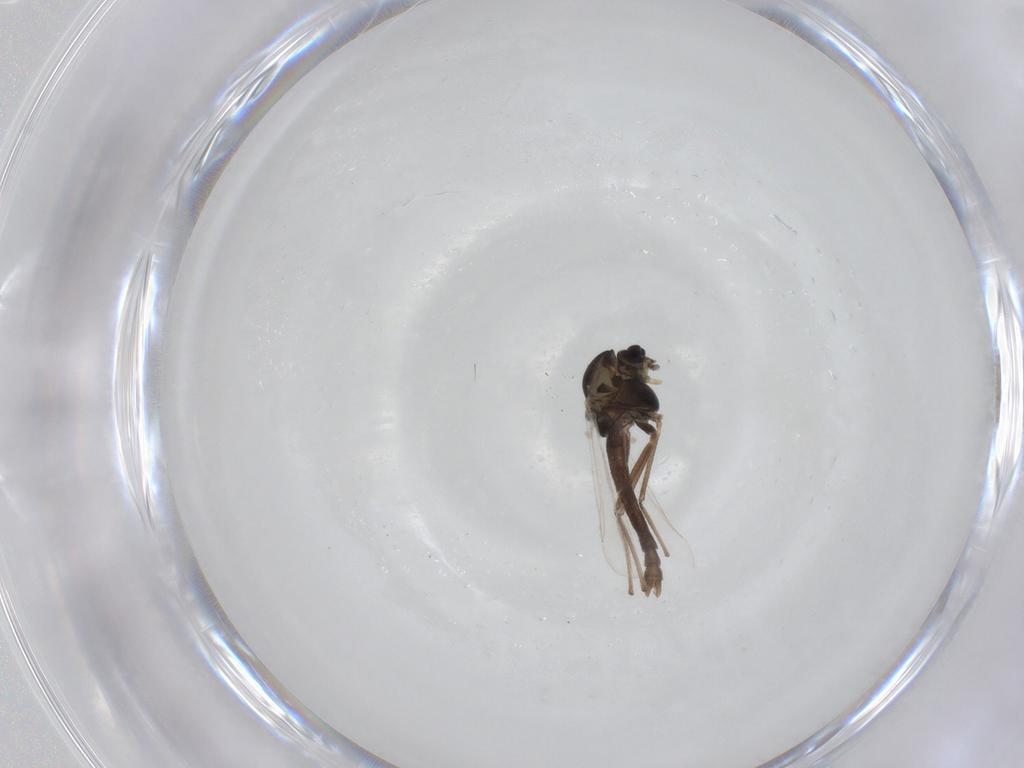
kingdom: Animalia
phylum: Arthropoda
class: Insecta
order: Diptera
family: Chironomidae
